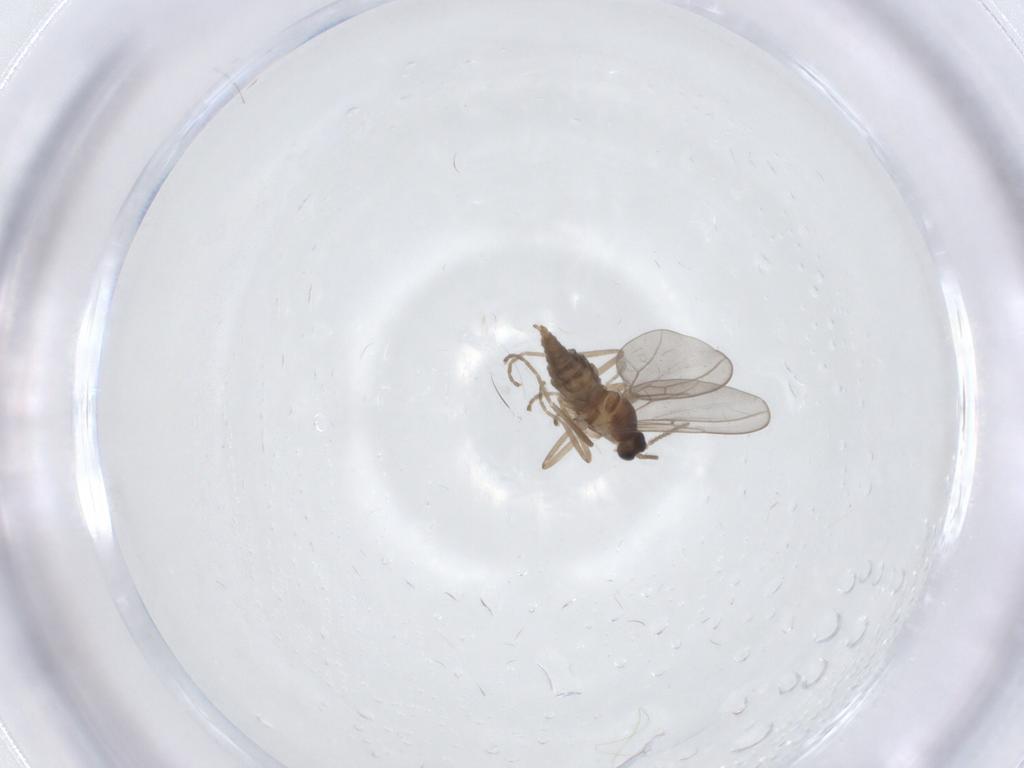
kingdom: Animalia
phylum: Arthropoda
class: Insecta
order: Diptera
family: Cecidomyiidae
